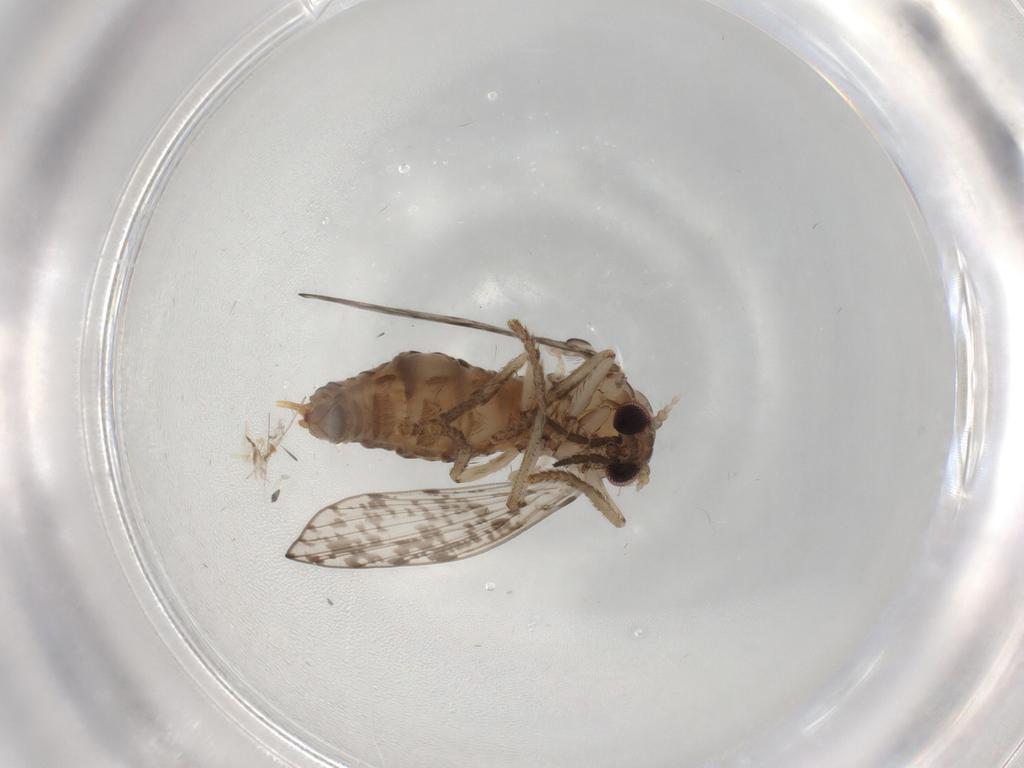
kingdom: Animalia
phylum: Arthropoda
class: Insecta
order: Diptera
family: Psychodidae
